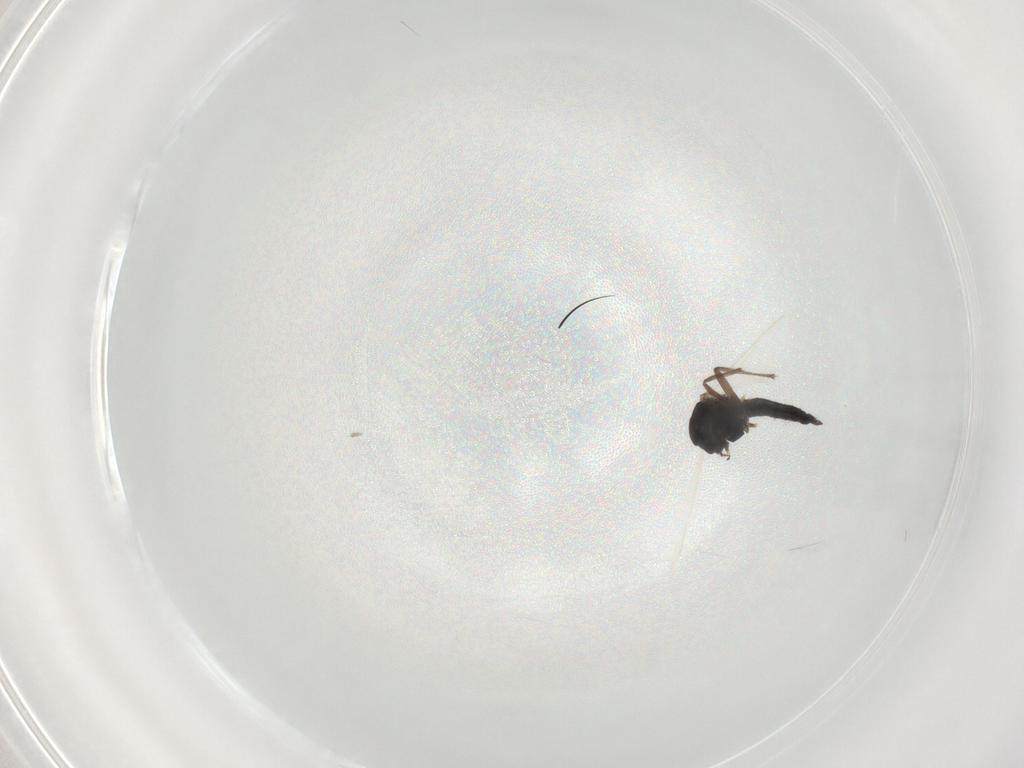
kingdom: Animalia
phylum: Arthropoda
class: Insecta
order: Diptera
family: Chironomidae
